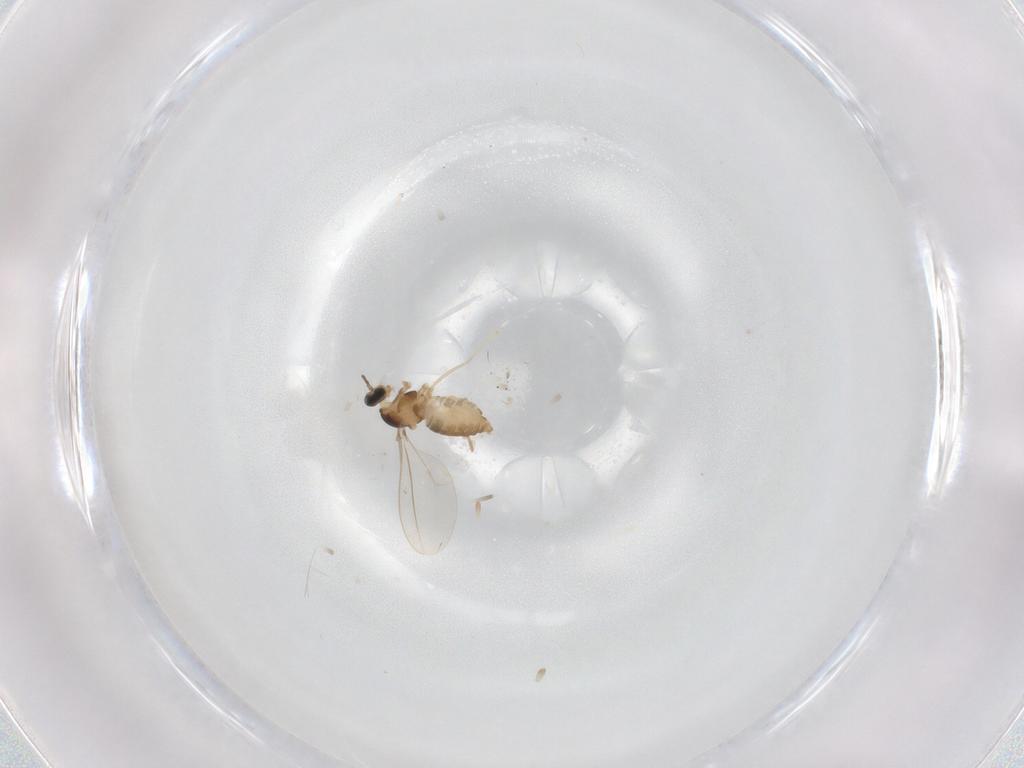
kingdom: Animalia
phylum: Arthropoda
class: Insecta
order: Diptera
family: Cecidomyiidae
